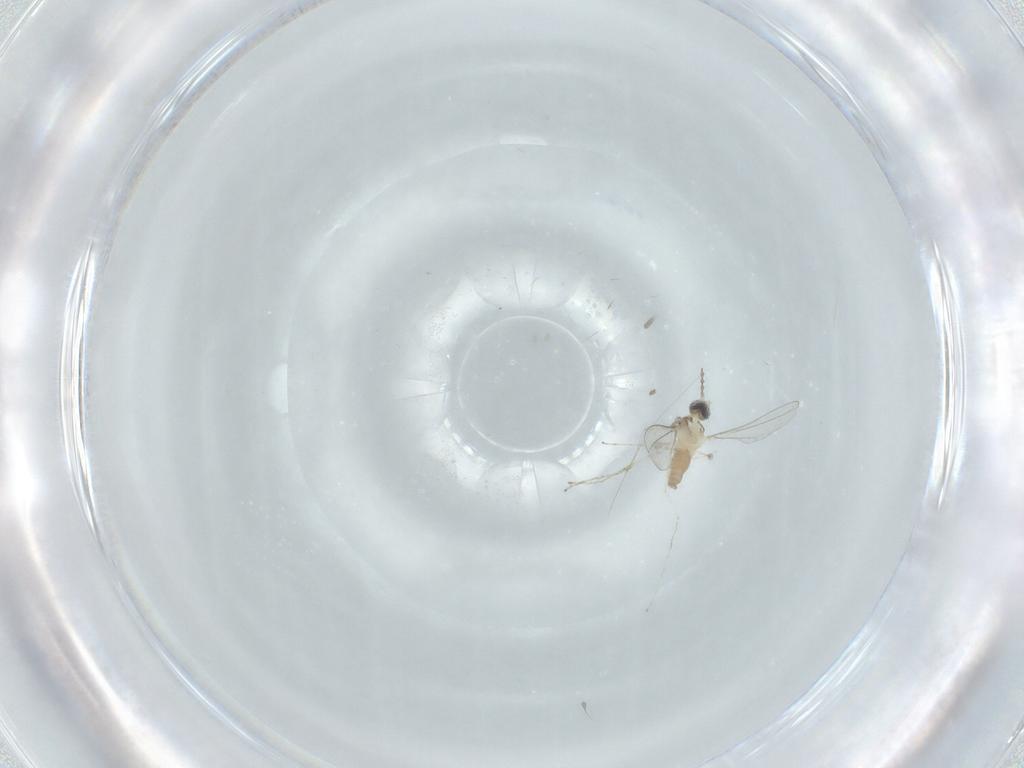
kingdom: Animalia
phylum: Arthropoda
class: Insecta
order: Diptera
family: Cecidomyiidae
